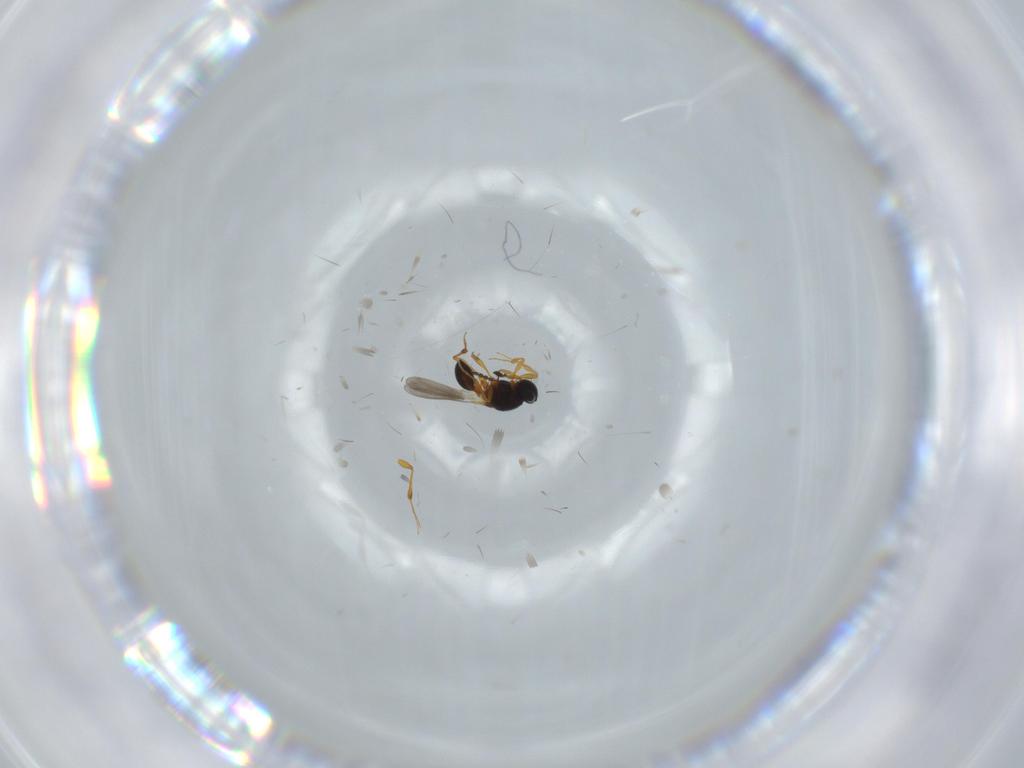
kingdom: Animalia
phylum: Arthropoda
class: Insecta
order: Hymenoptera
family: Platygastridae
